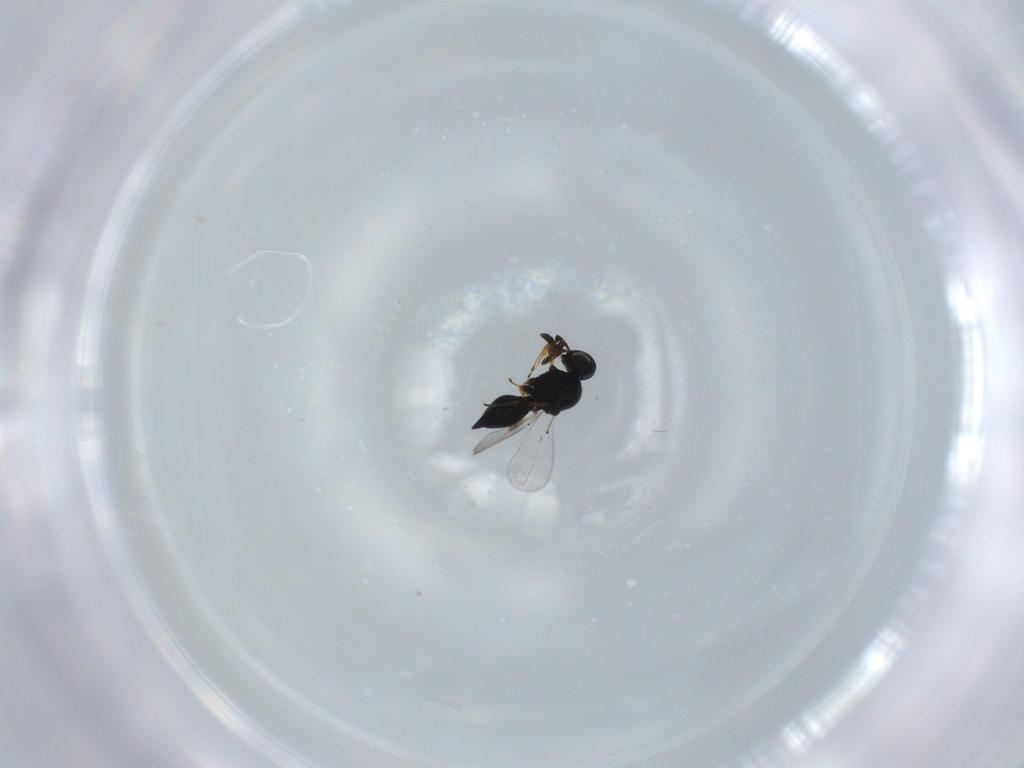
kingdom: Animalia
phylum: Arthropoda
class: Insecta
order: Hymenoptera
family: Platygastridae
